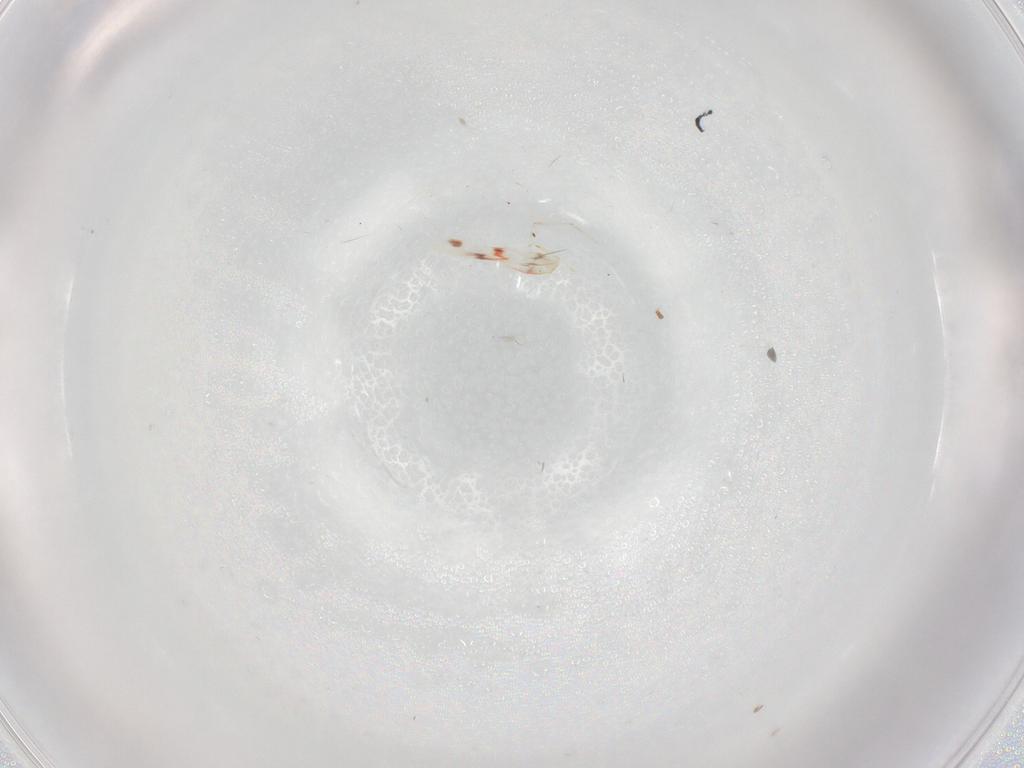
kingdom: Animalia
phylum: Arthropoda
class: Insecta
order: Hemiptera
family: Aleyrodidae
